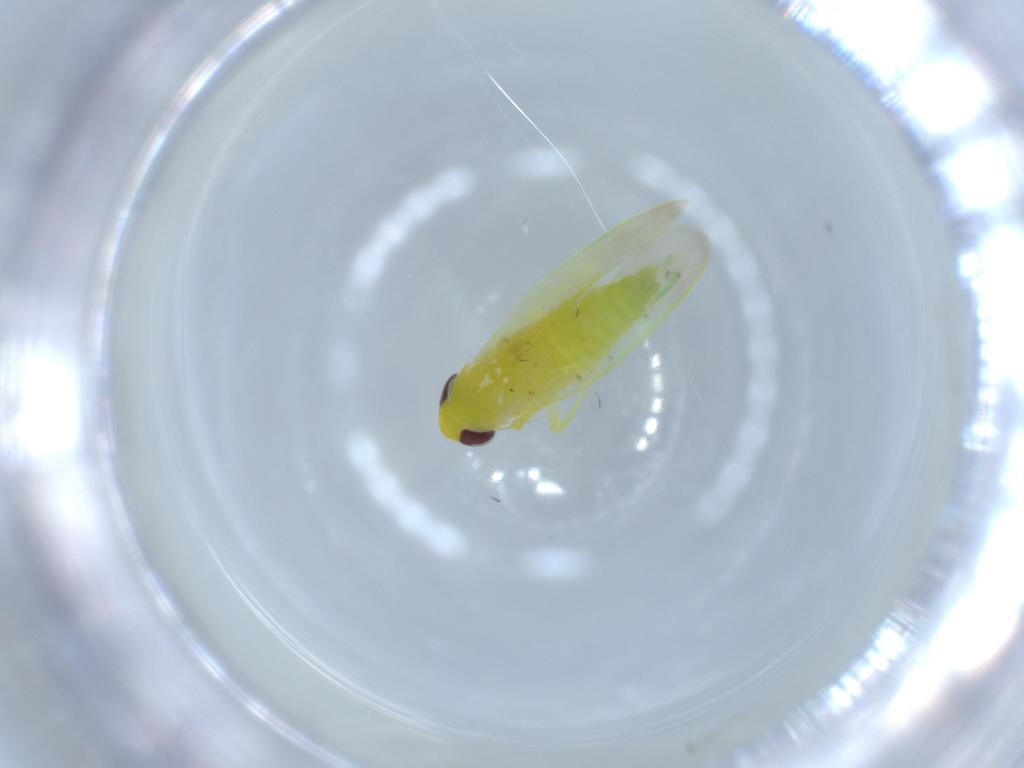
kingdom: Animalia
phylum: Arthropoda
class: Insecta
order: Hemiptera
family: Cicadellidae
